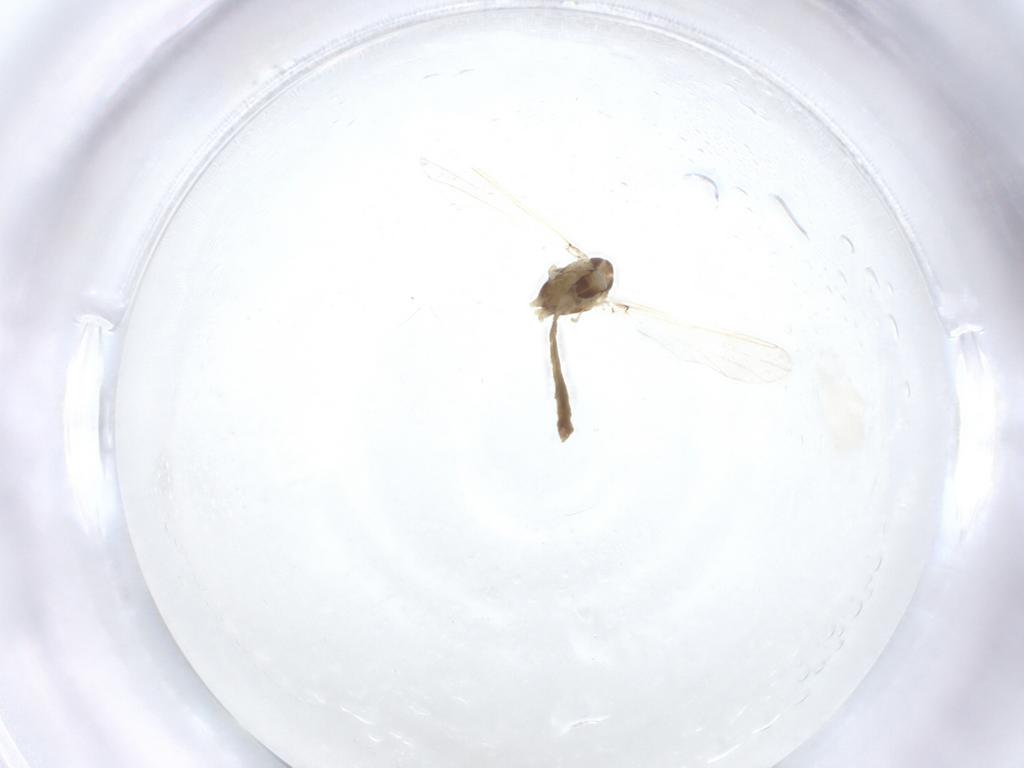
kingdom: Animalia
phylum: Arthropoda
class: Insecta
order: Diptera
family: Chironomidae
